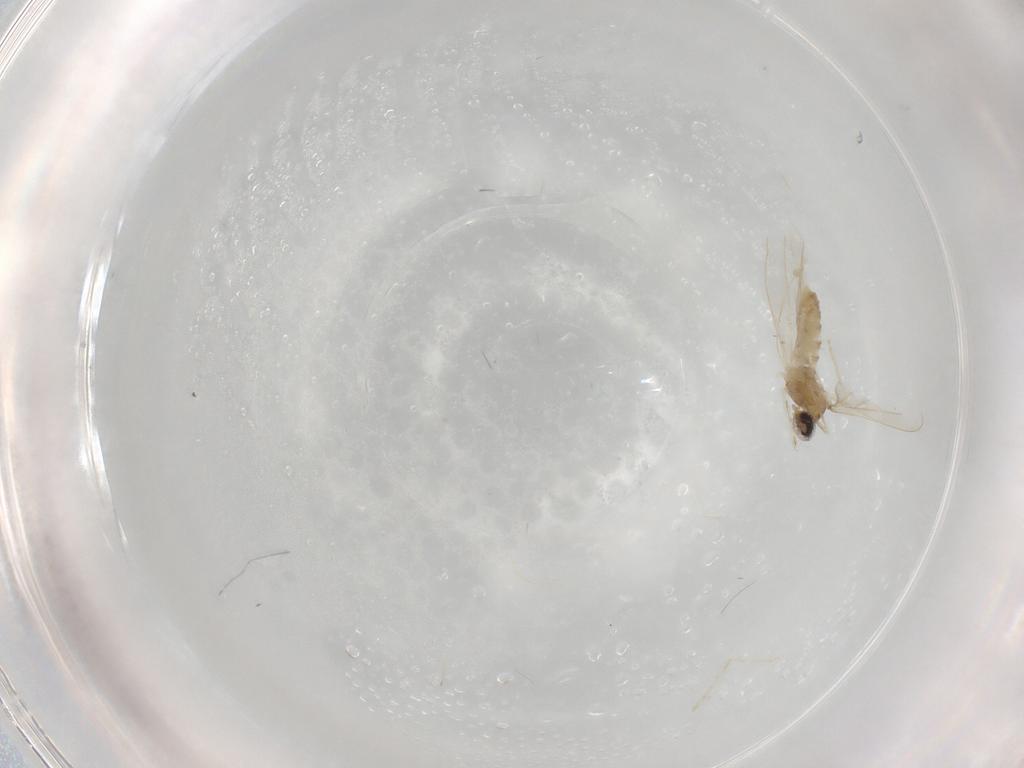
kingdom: Animalia
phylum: Arthropoda
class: Insecta
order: Diptera
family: Cecidomyiidae
